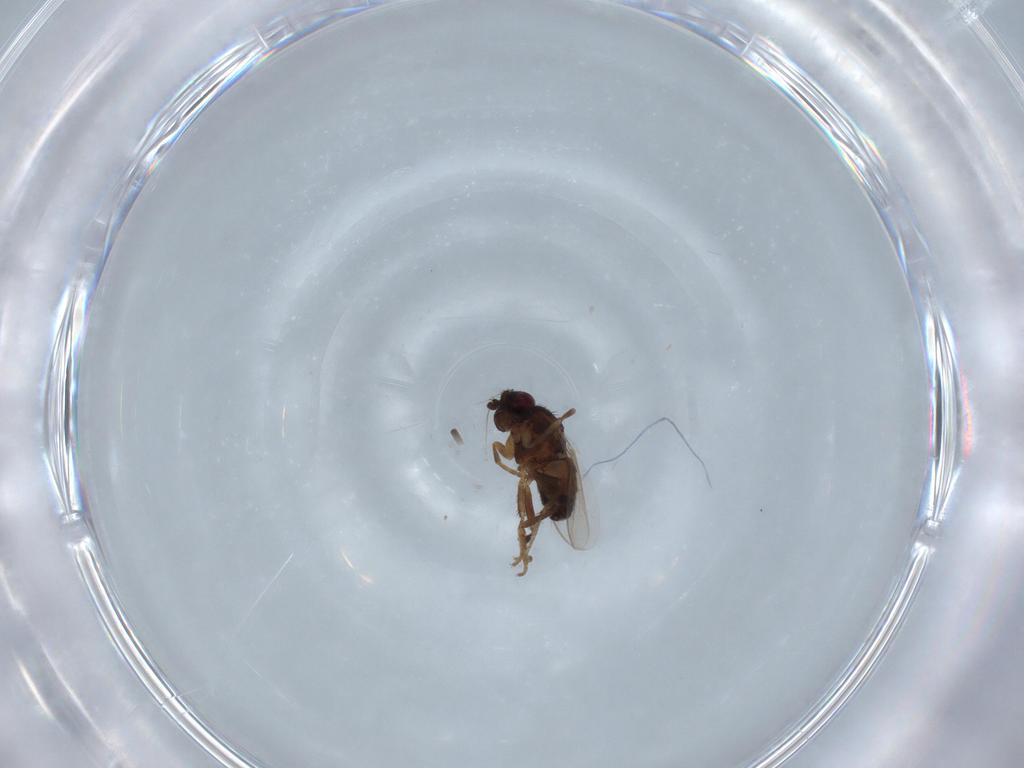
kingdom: Animalia
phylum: Arthropoda
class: Insecta
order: Diptera
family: Sphaeroceridae
